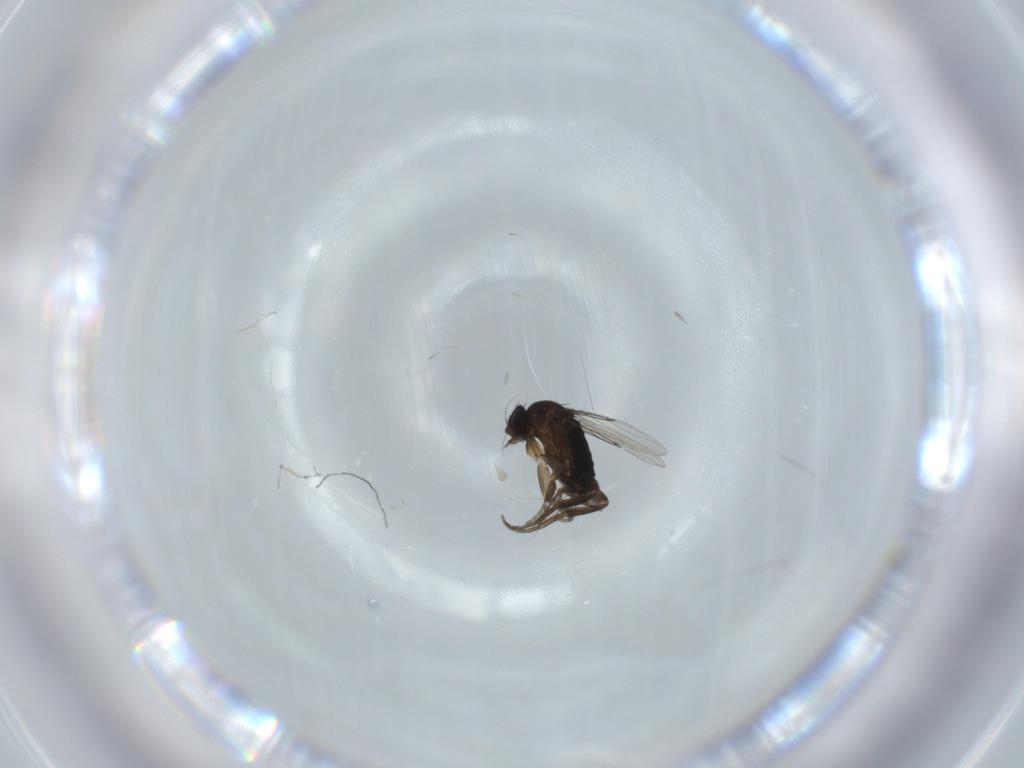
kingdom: Animalia
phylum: Arthropoda
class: Insecta
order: Diptera
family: Phoridae
